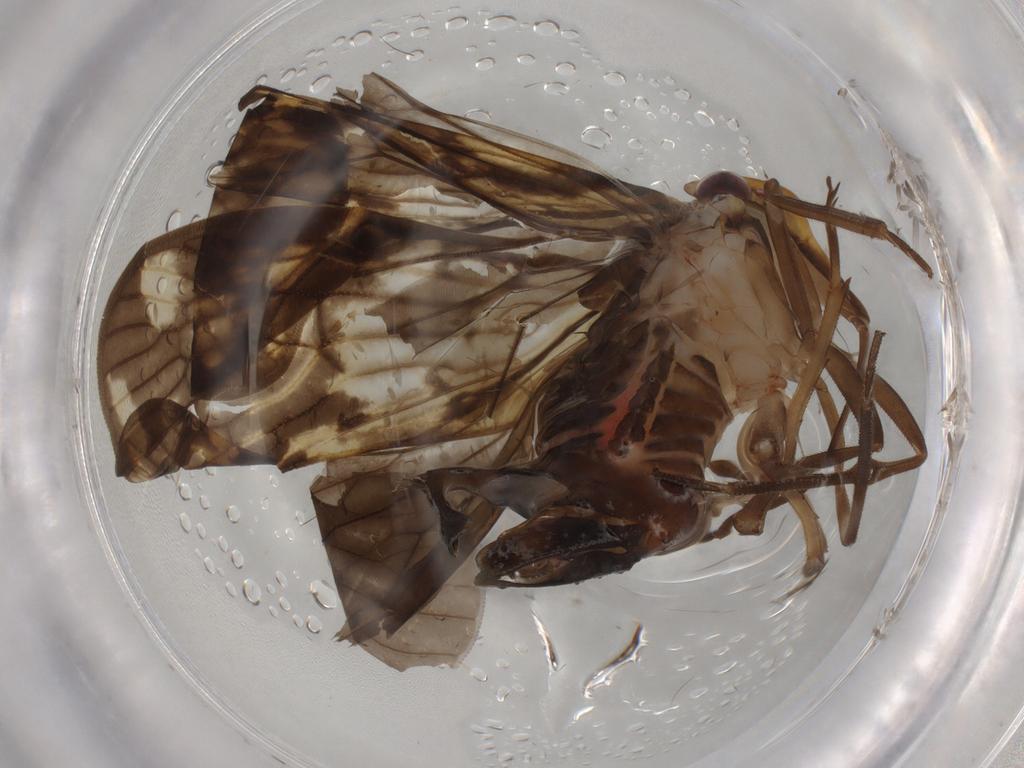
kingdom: Animalia
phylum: Arthropoda
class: Insecta
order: Hemiptera
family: Cixiidae
